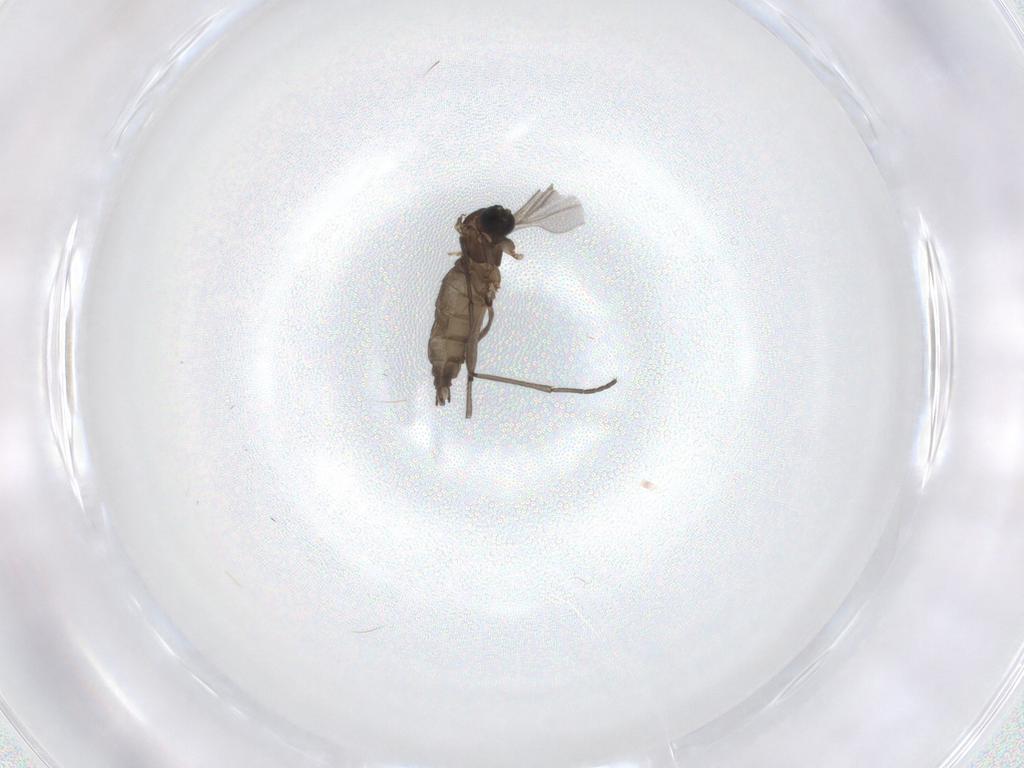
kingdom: Animalia
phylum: Arthropoda
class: Insecta
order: Diptera
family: Sciaridae
